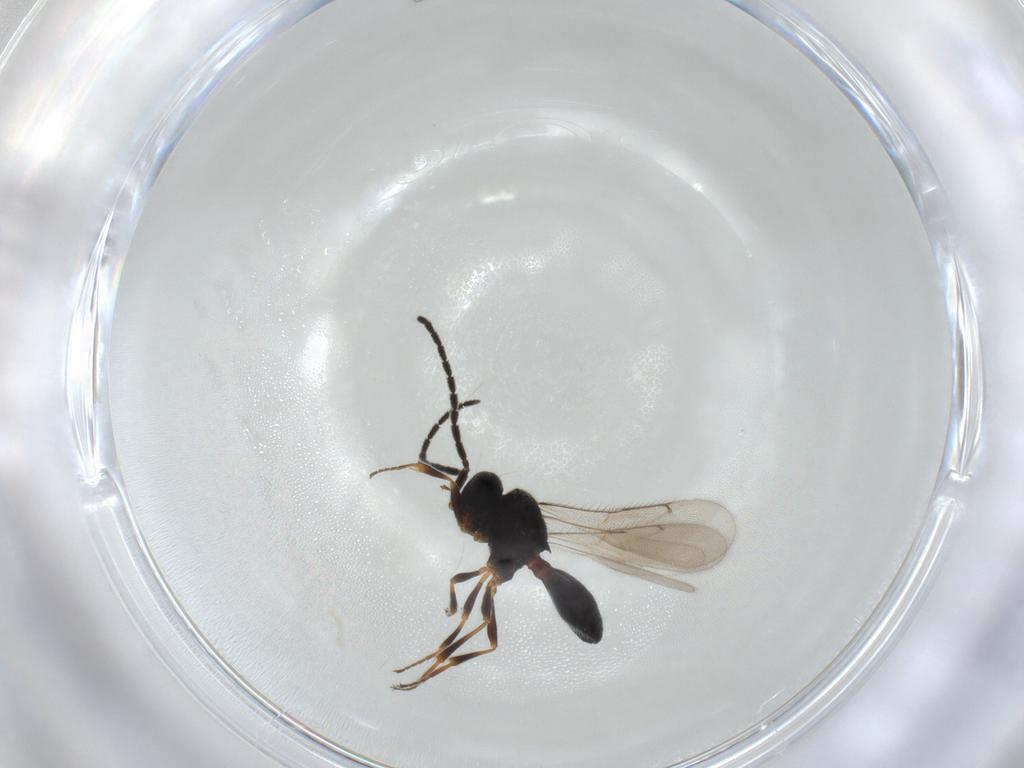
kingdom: Animalia
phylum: Arthropoda
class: Insecta
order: Hymenoptera
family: Scelionidae
